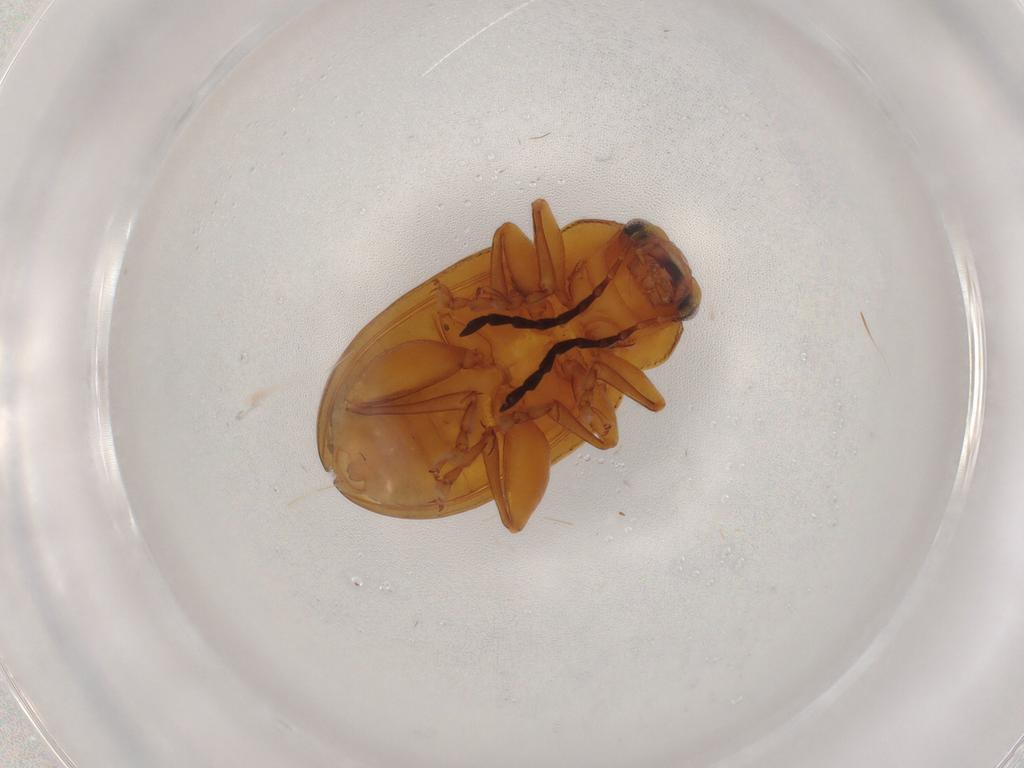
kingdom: Animalia
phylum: Arthropoda
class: Insecta
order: Coleoptera
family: Chrysomelidae
